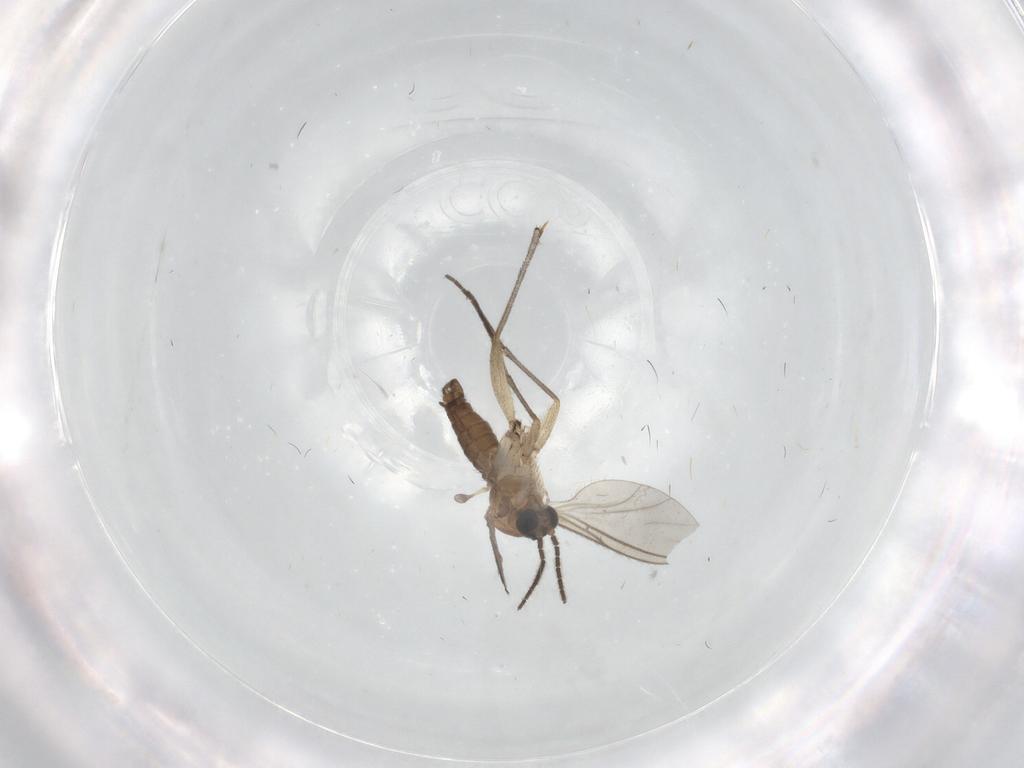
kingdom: Animalia
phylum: Arthropoda
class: Insecta
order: Diptera
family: Sciaridae
